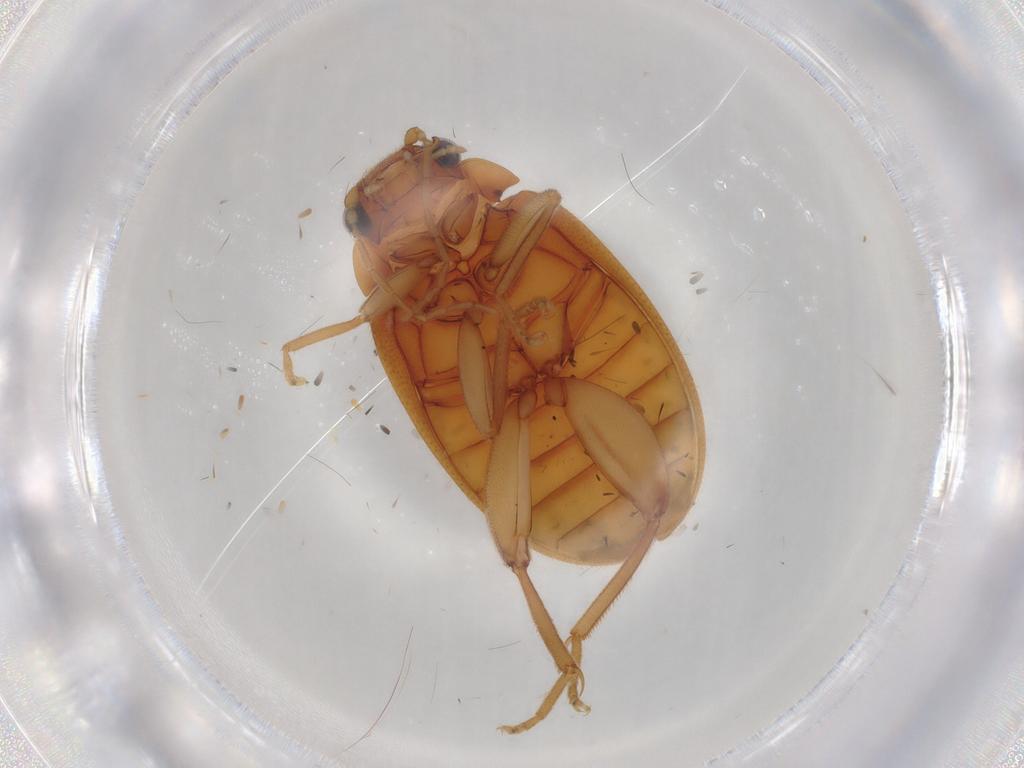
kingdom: Animalia
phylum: Arthropoda
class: Insecta
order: Coleoptera
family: Scirtidae
